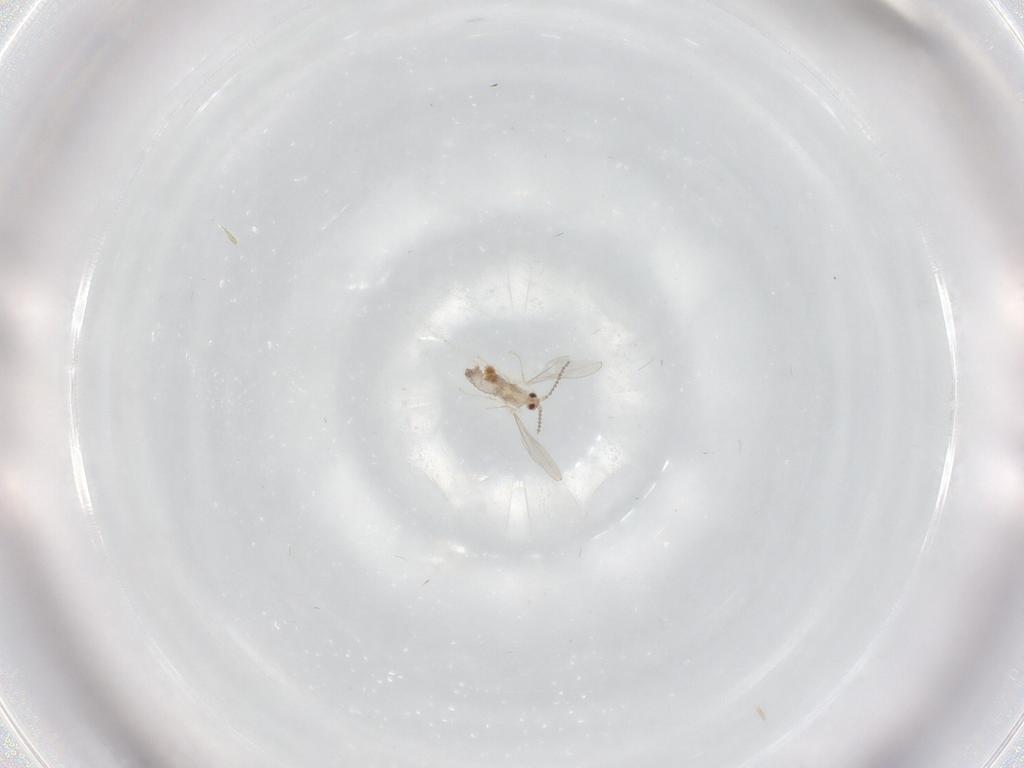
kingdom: Animalia
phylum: Arthropoda
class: Insecta
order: Diptera
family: Cecidomyiidae
